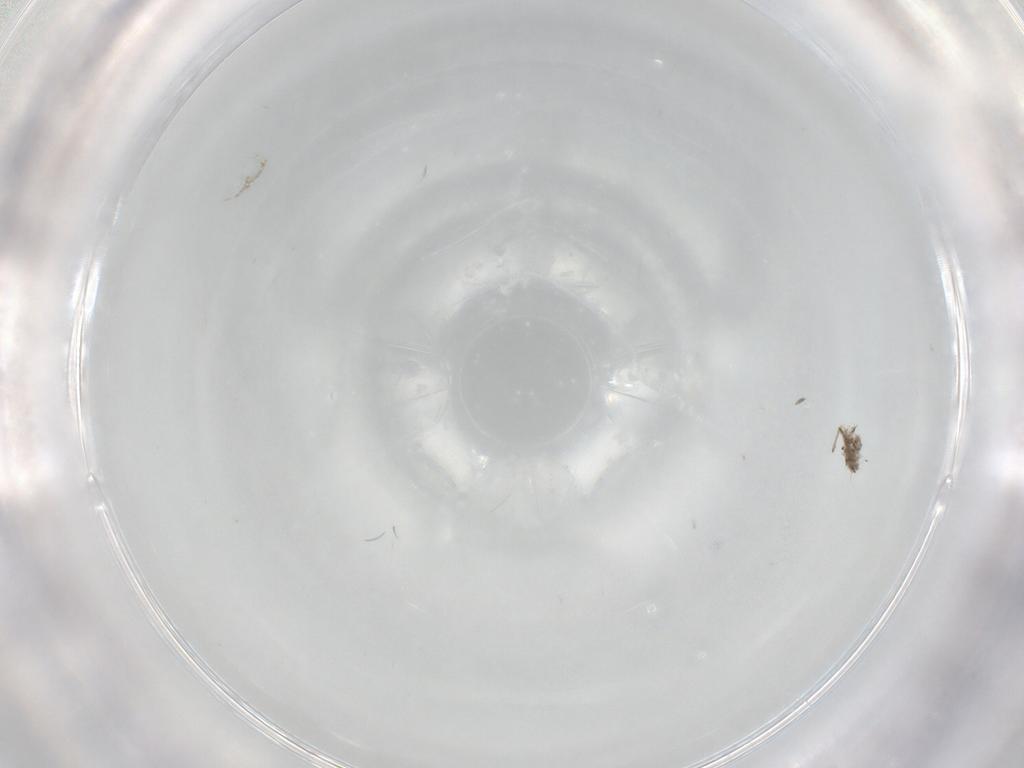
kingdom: Animalia
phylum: Arthropoda
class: Insecta
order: Diptera
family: Chironomidae
